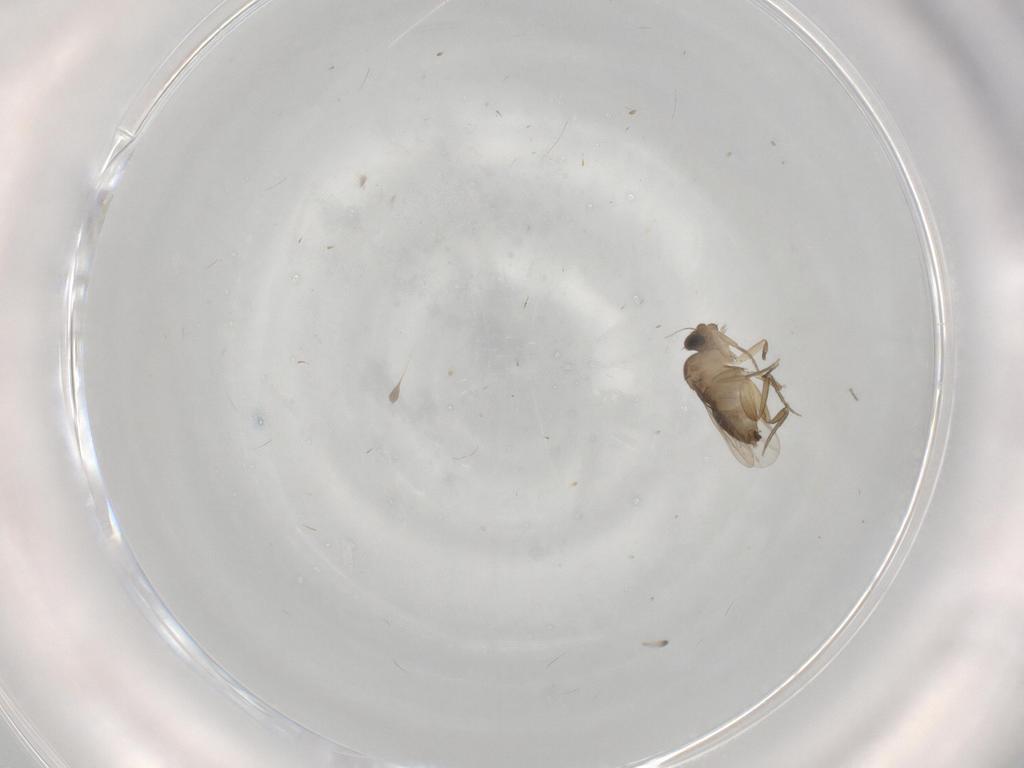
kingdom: Animalia
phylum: Arthropoda
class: Insecta
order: Diptera
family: Phoridae
